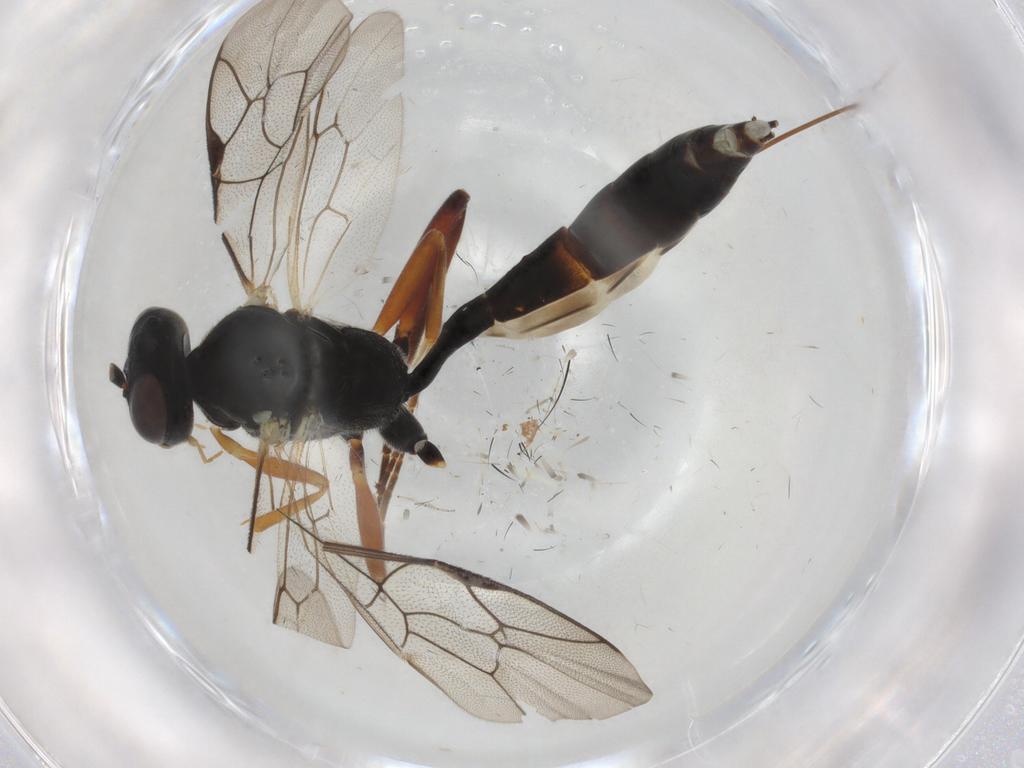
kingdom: Animalia
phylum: Arthropoda
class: Insecta
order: Hymenoptera
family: Ichneumonidae
